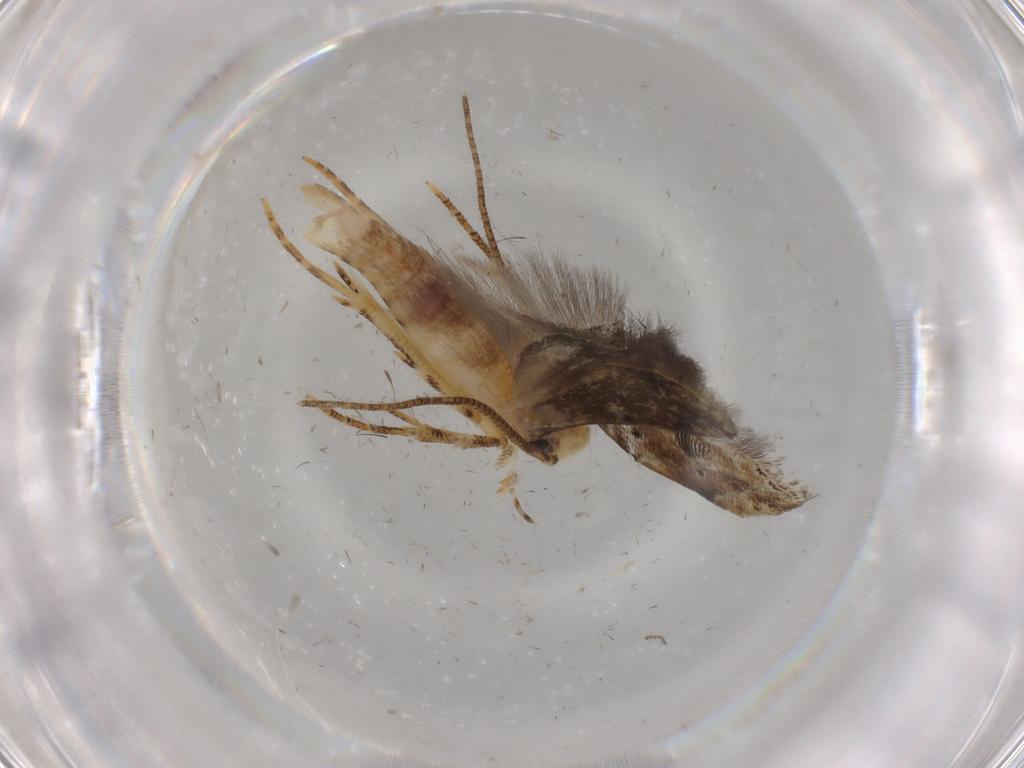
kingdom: Animalia
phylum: Arthropoda
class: Insecta
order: Lepidoptera
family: Gelechiidae
